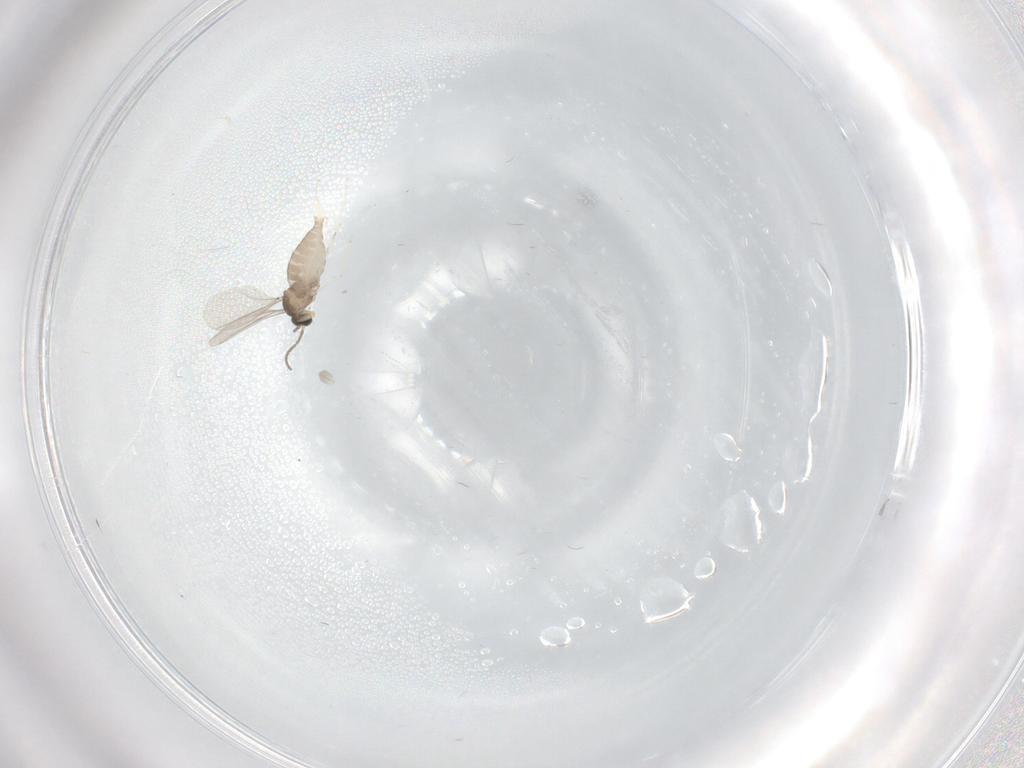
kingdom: Animalia
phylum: Arthropoda
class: Insecta
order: Diptera
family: Cecidomyiidae
